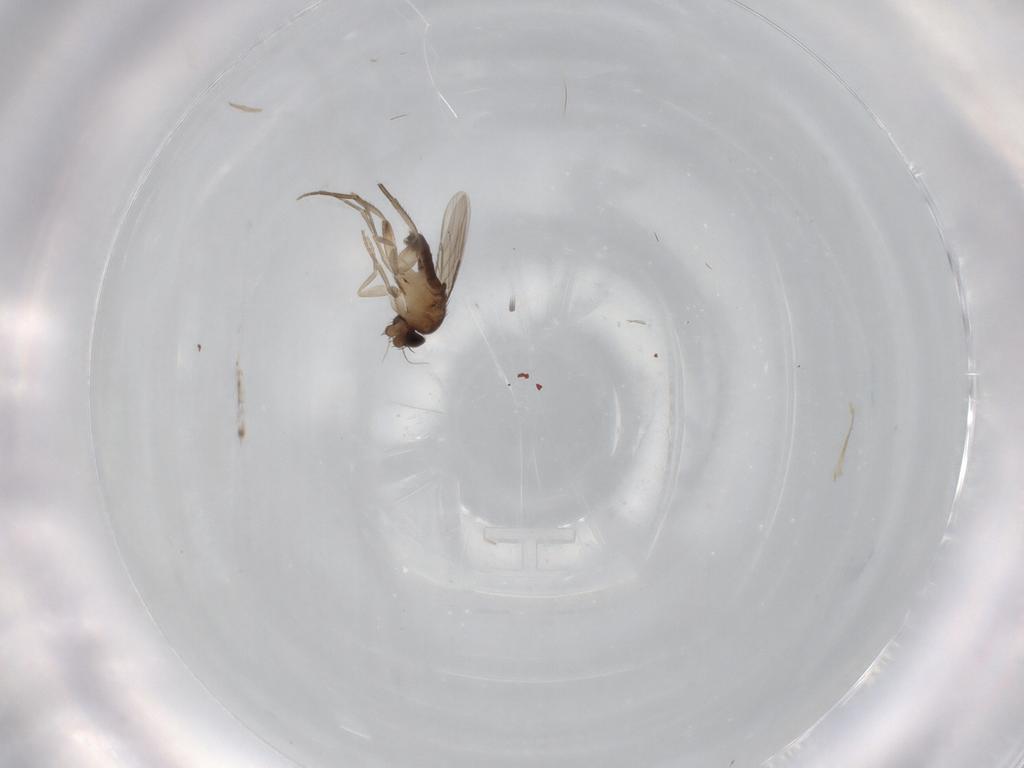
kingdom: Animalia
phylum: Arthropoda
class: Insecta
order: Diptera
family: Phoridae
